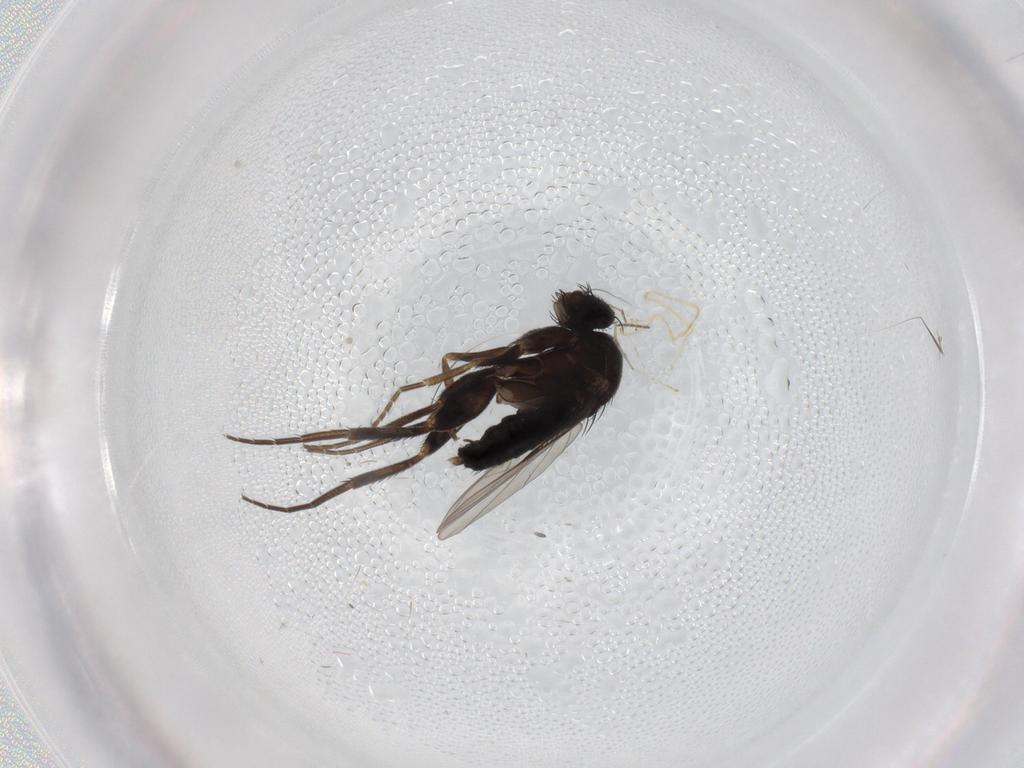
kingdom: Animalia
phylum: Arthropoda
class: Insecta
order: Diptera
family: Phoridae
